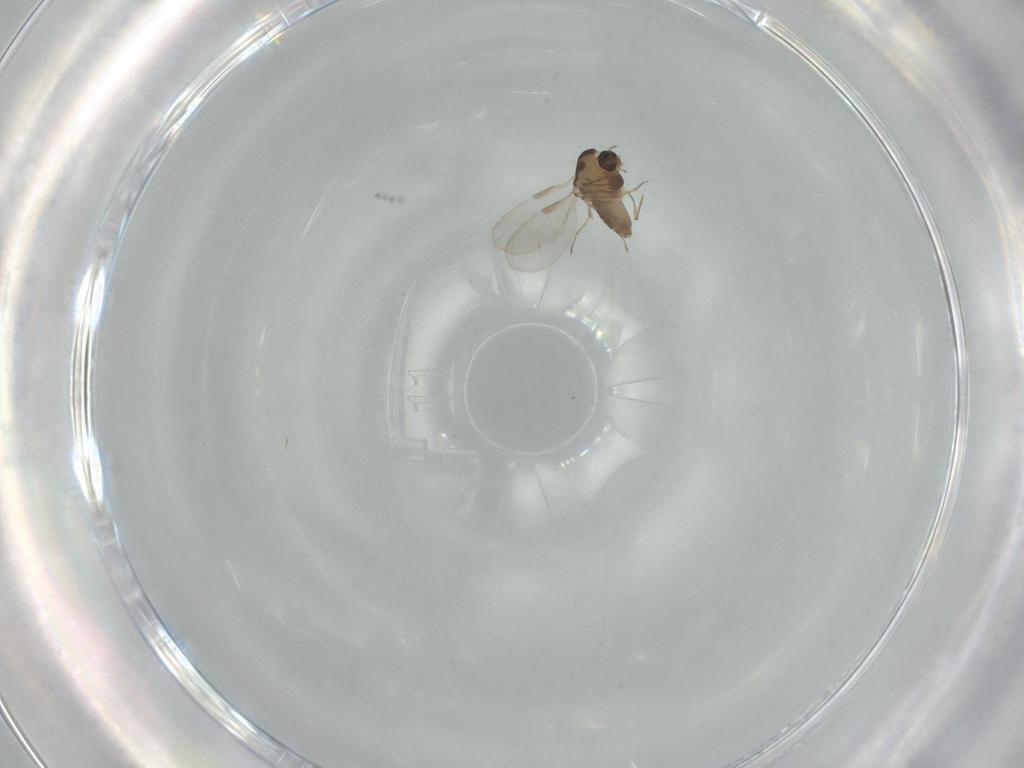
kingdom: Animalia
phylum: Arthropoda
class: Insecta
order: Diptera
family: Chironomidae
